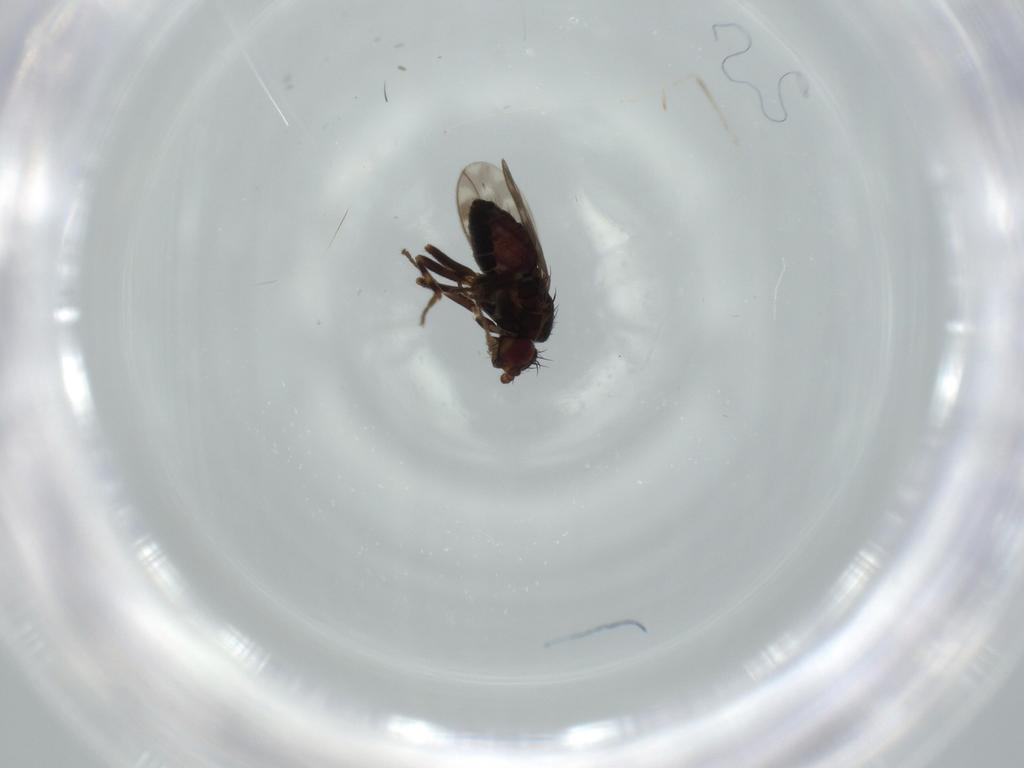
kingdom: Animalia
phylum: Arthropoda
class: Insecta
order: Diptera
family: Sphaeroceridae
